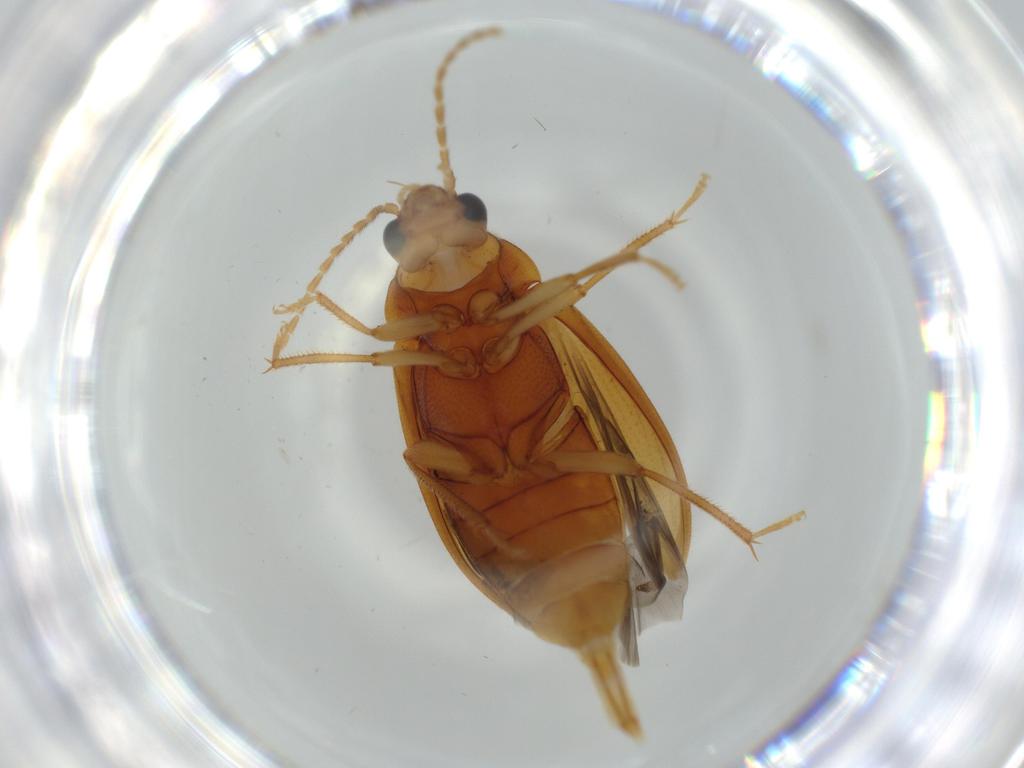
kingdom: Animalia
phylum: Arthropoda
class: Insecta
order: Coleoptera
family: Ptilodactylidae
